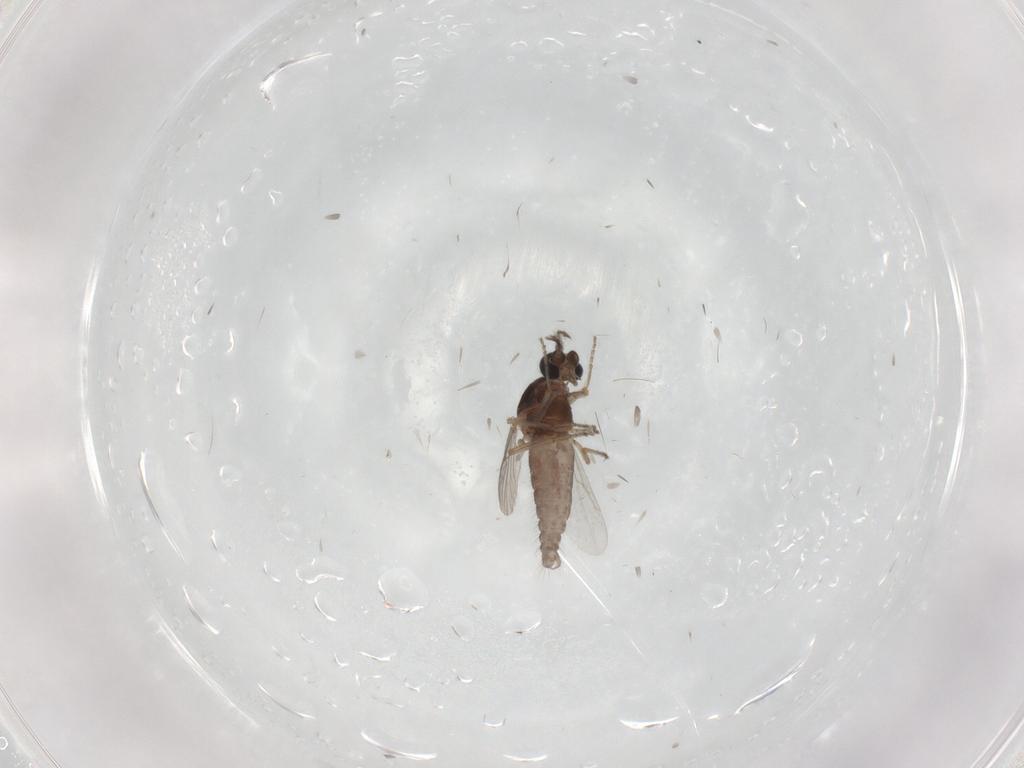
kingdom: Animalia
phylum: Arthropoda
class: Insecta
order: Diptera
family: Ceratopogonidae
